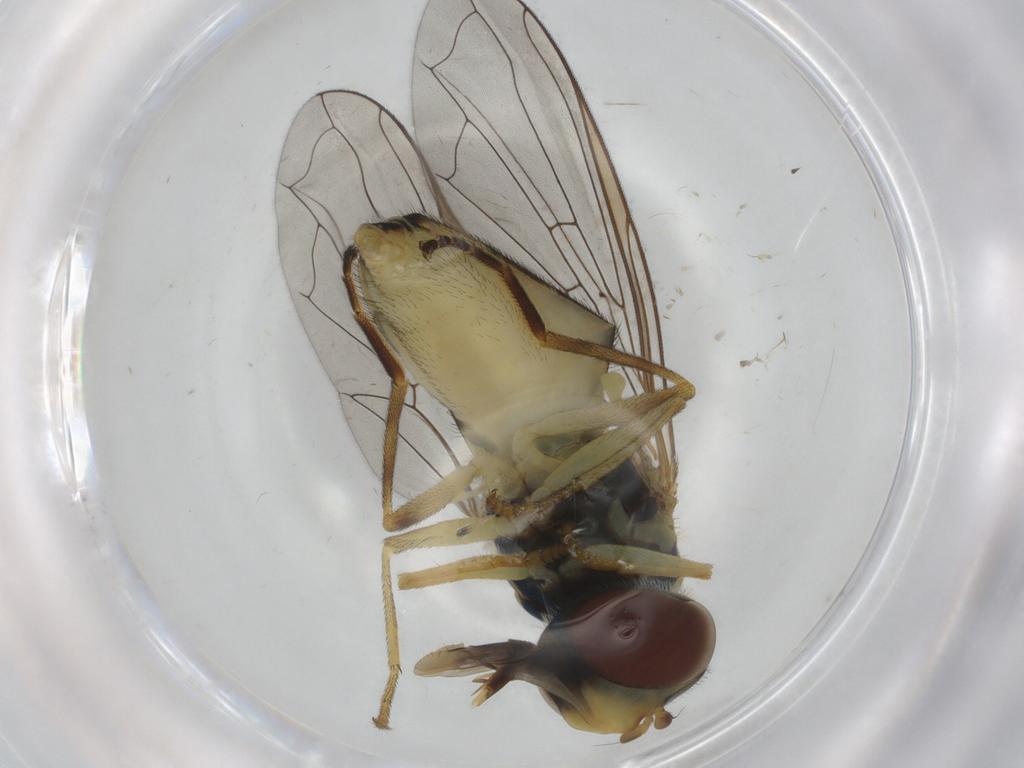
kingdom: Animalia
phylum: Arthropoda
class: Insecta
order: Diptera
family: Syrphidae
